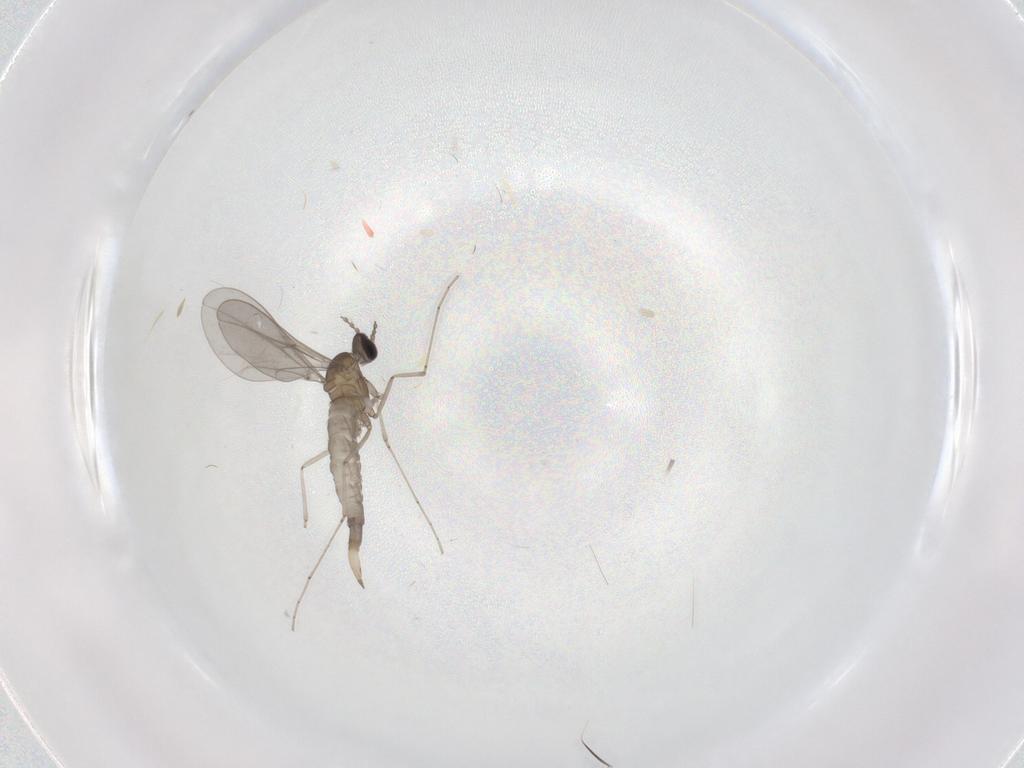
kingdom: Animalia
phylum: Arthropoda
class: Insecta
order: Diptera
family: Cecidomyiidae
